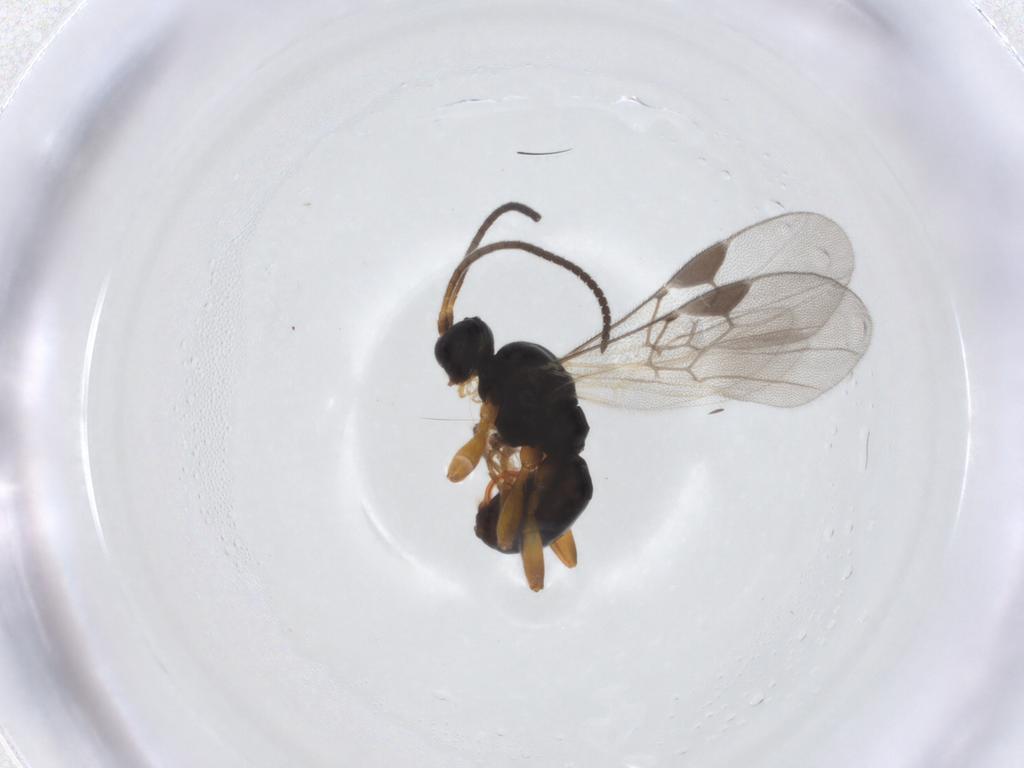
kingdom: Animalia
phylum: Arthropoda
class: Insecta
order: Hymenoptera
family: Braconidae
